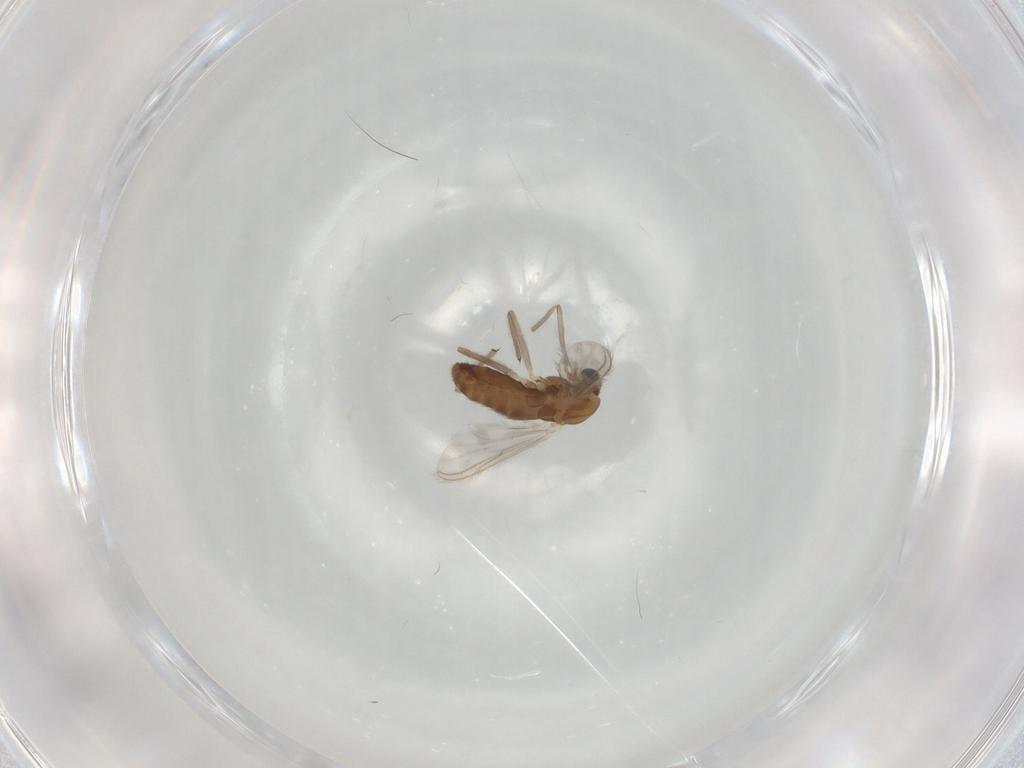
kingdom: Animalia
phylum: Arthropoda
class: Insecta
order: Diptera
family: Chironomidae
